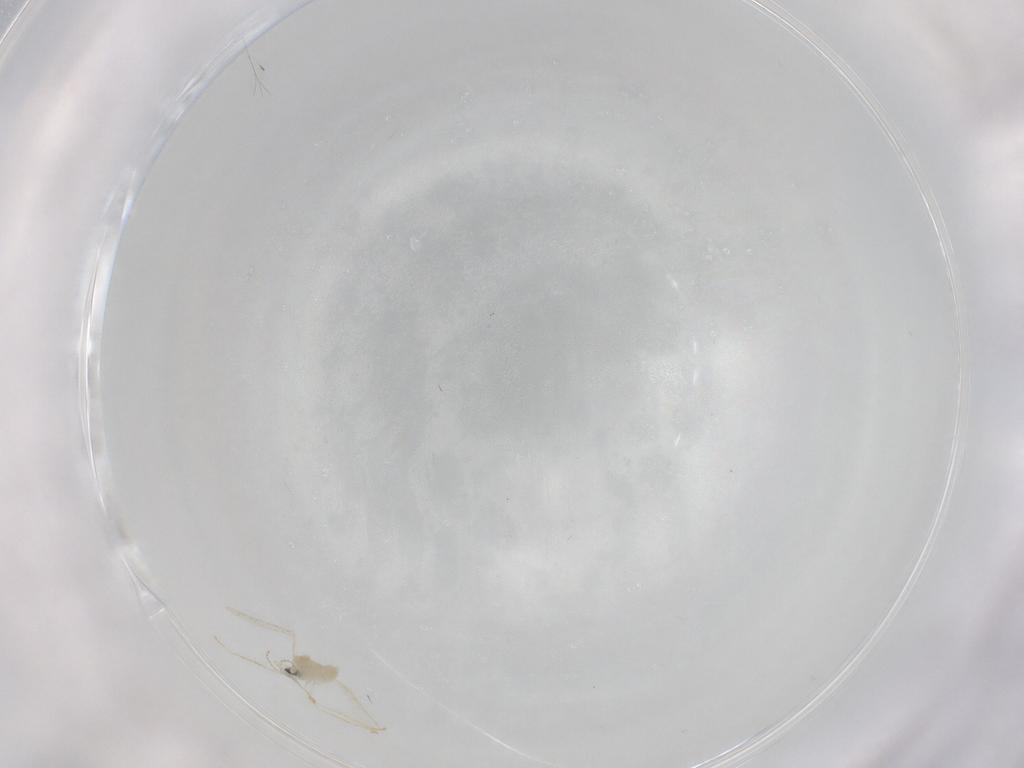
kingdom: Animalia
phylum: Arthropoda
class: Insecta
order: Diptera
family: Cecidomyiidae
